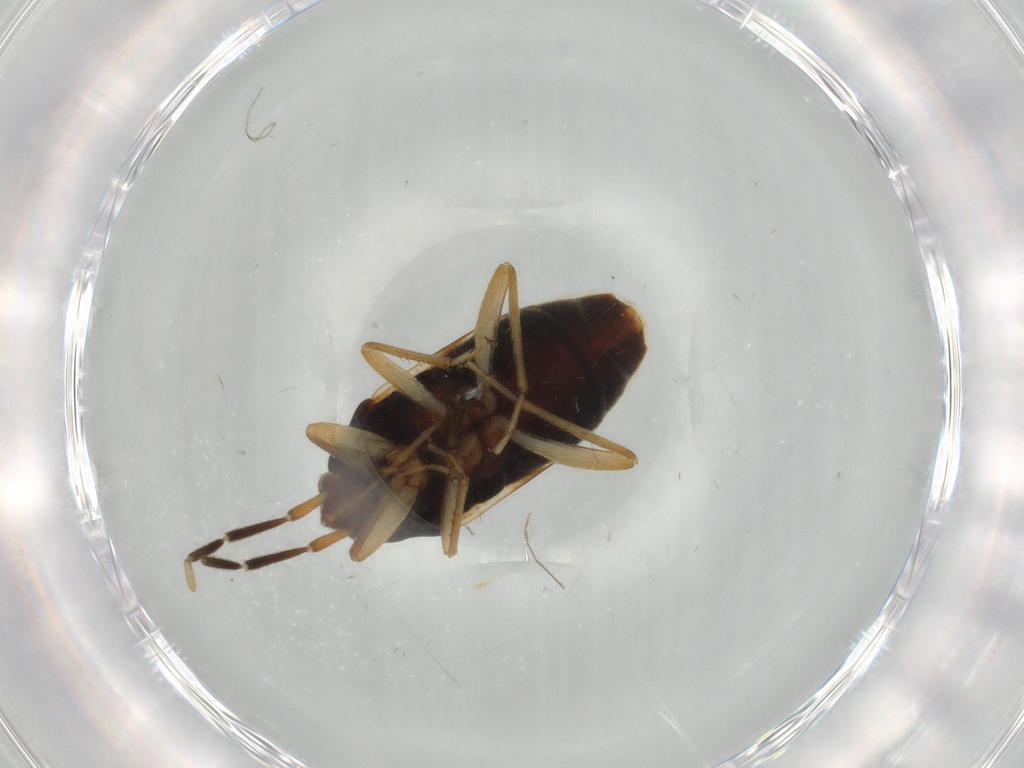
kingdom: Animalia
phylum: Arthropoda
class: Insecta
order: Hemiptera
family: Rhyparochromidae
